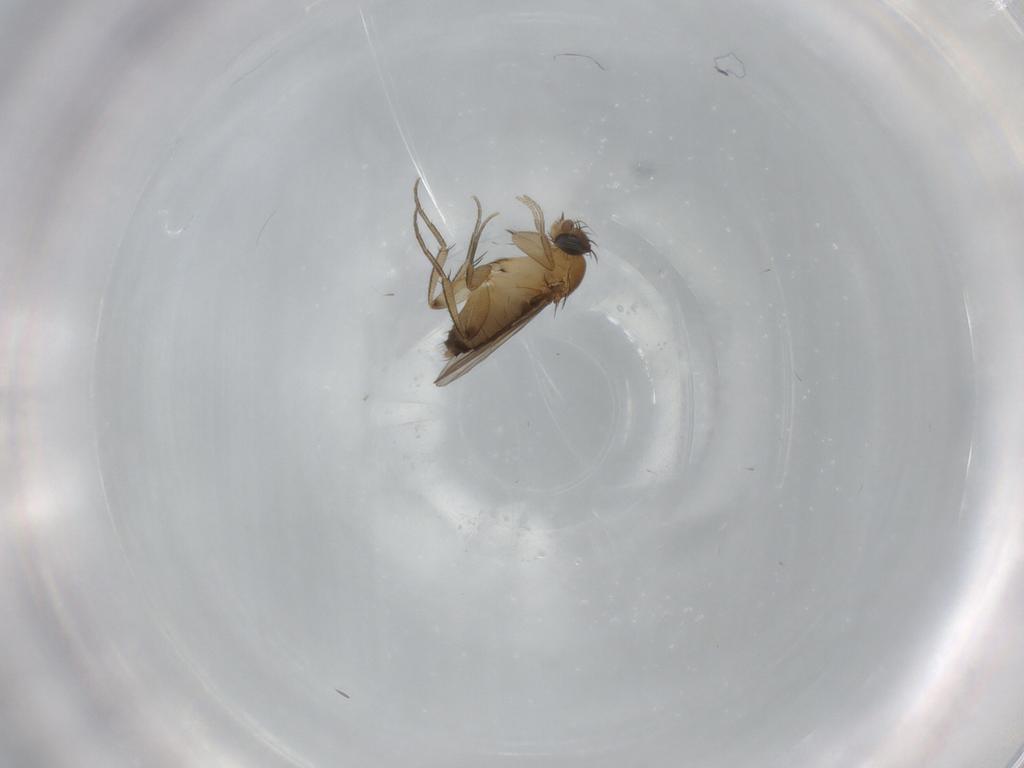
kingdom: Animalia
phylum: Arthropoda
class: Insecta
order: Diptera
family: Phoridae
